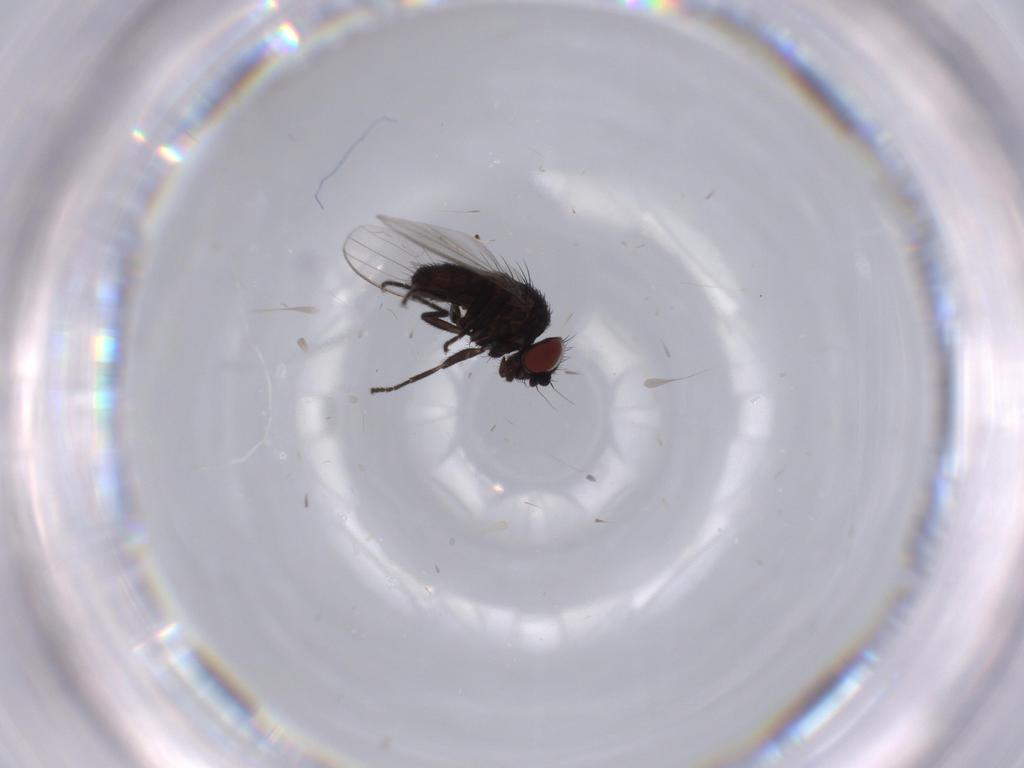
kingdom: Animalia
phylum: Arthropoda
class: Insecta
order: Diptera
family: Milichiidae
